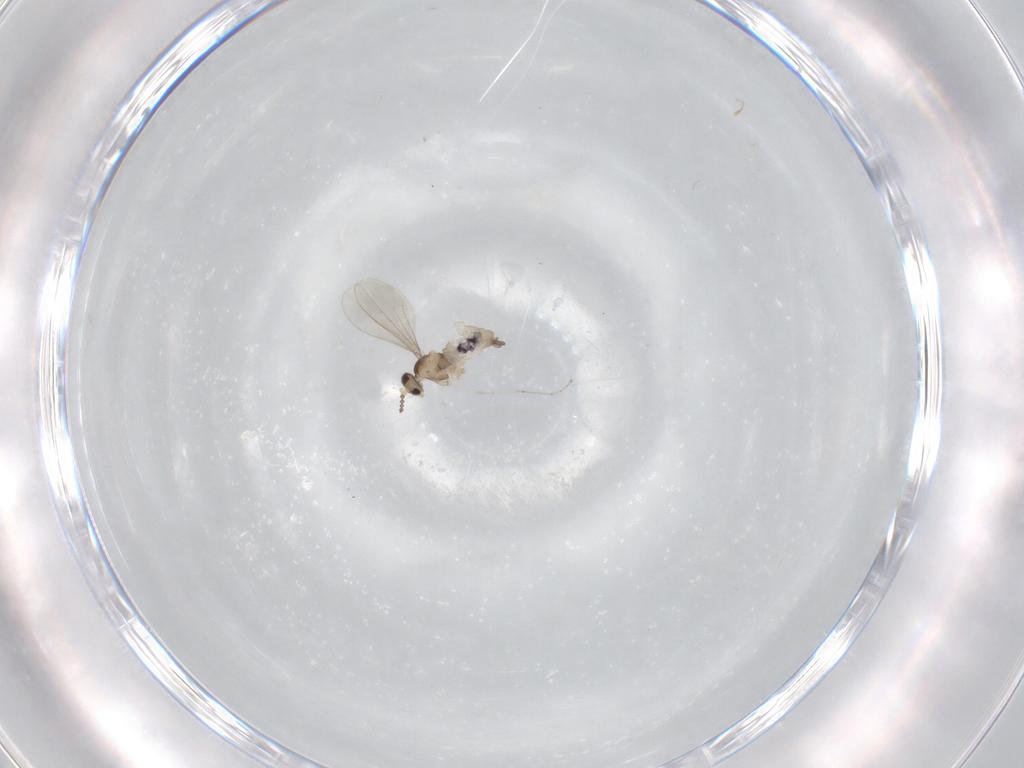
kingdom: Animalia
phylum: Arthropoda
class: Insecta
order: Diptera
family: Cecidomyiidae
